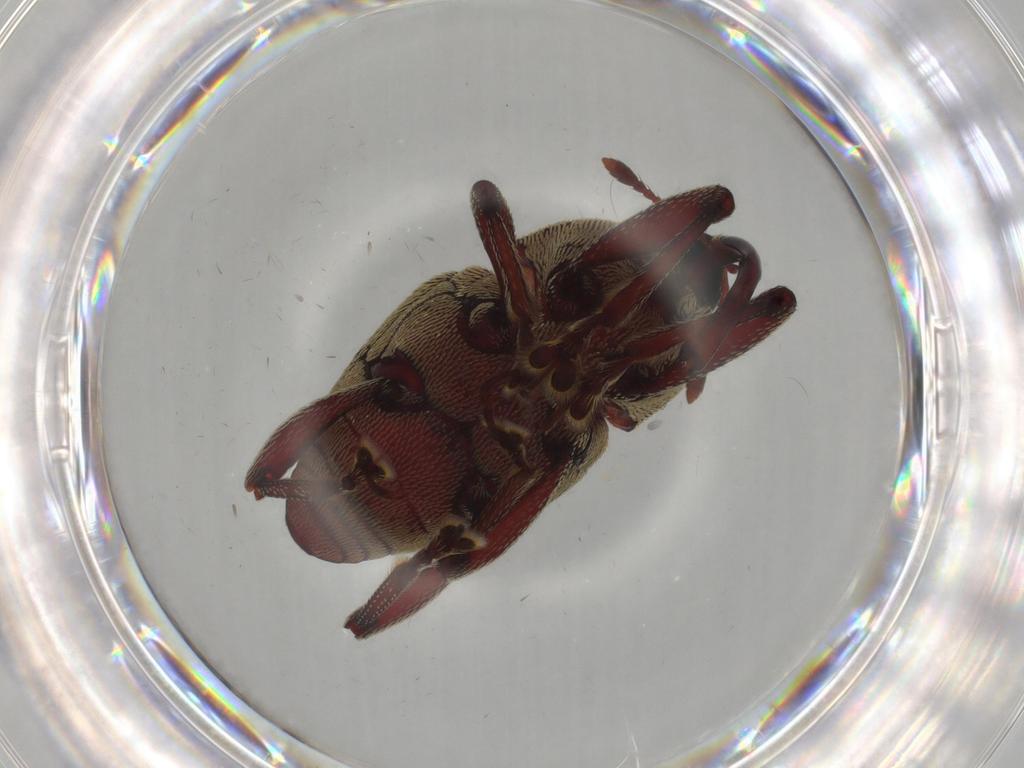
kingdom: Animalia
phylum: Arthropoda
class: Insecta
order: Coleoptera
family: Curculionidae
